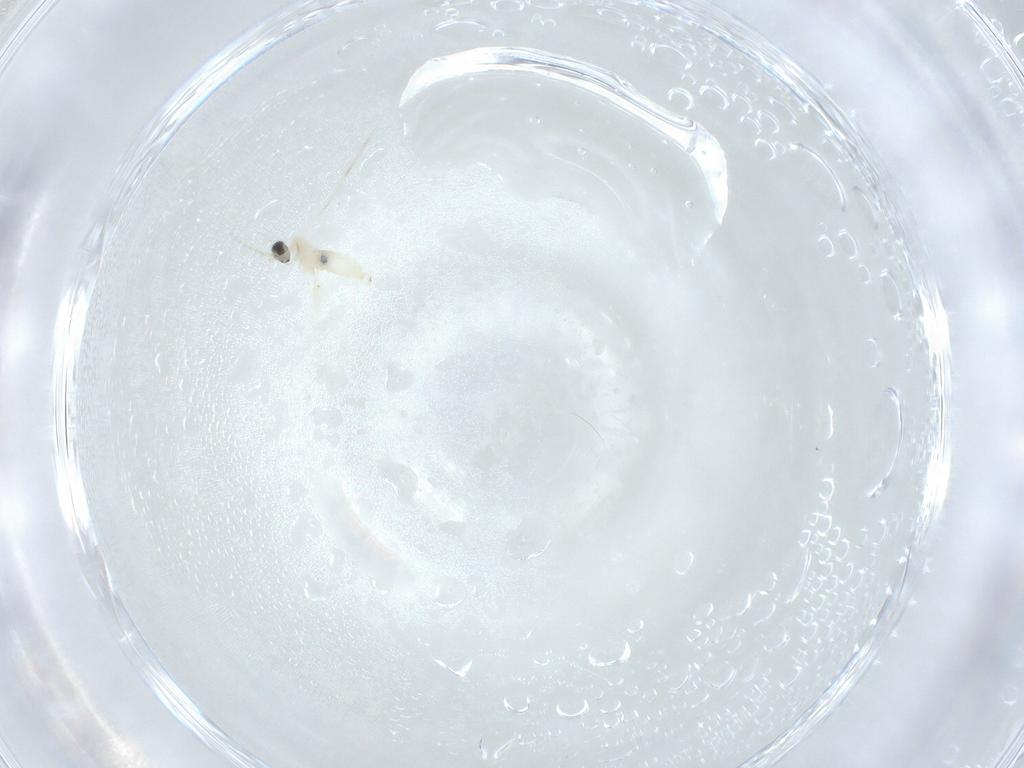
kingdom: Animalia
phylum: Arthropoda
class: Insecta
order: Diptera
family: Cecidomyiidae
